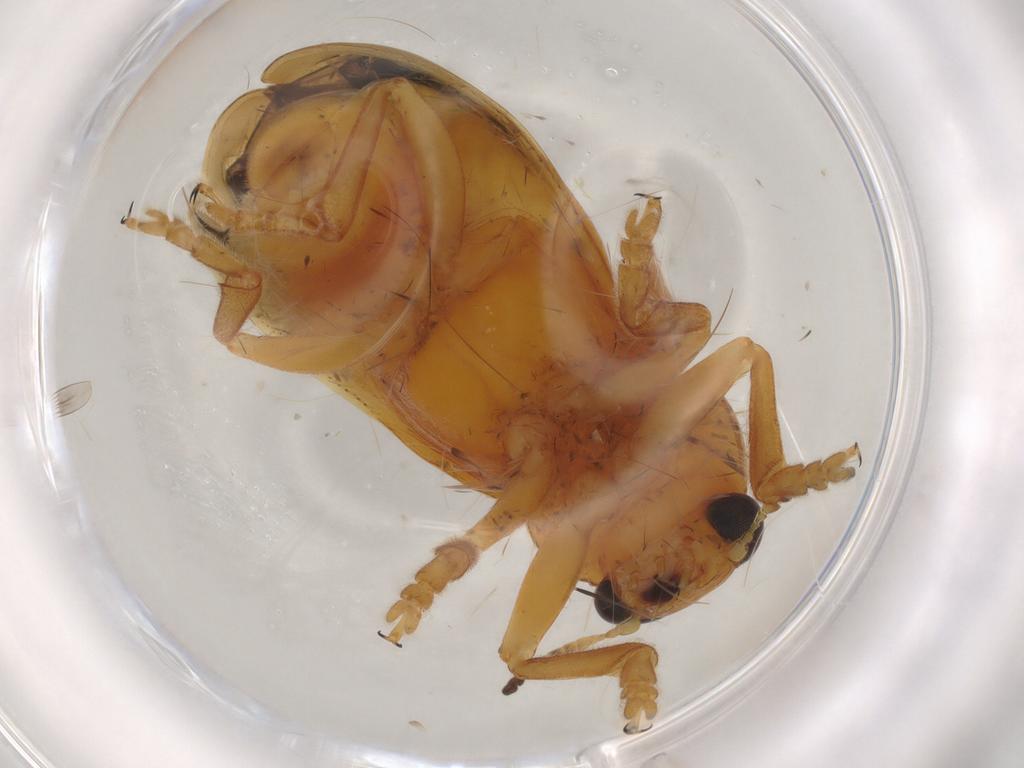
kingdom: Animalia
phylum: Arthropoda
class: Insecta
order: Coleoptera
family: Chrysomelidae
